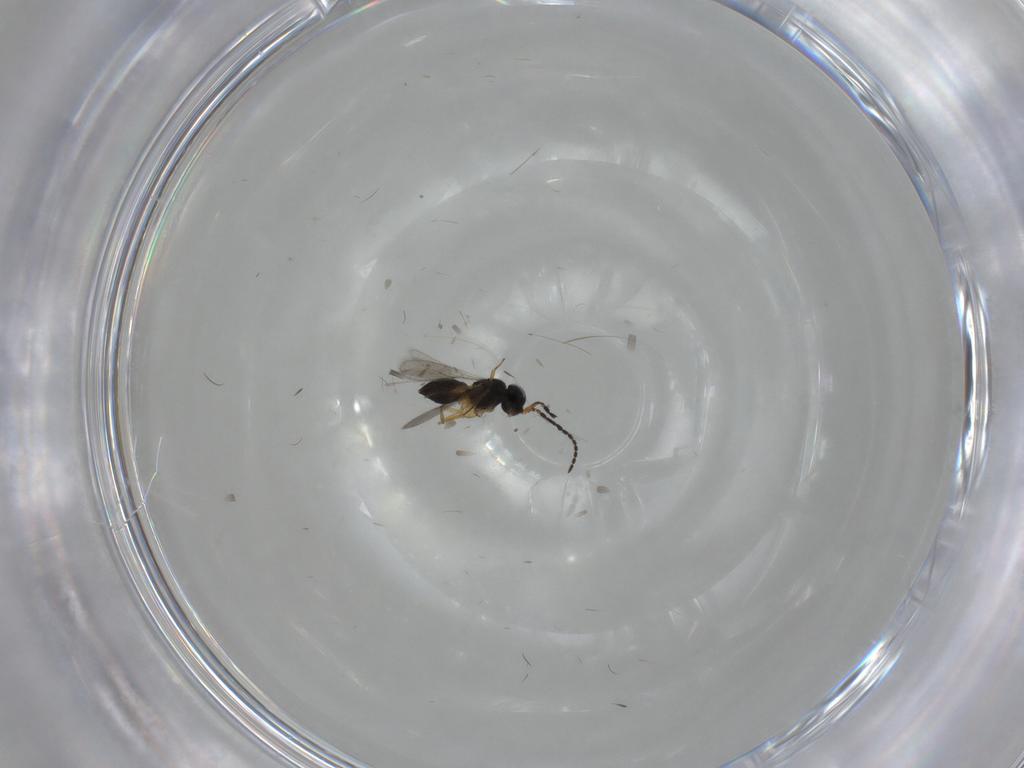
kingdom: Animalia
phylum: Arthropoda
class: Insecta
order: Hymenoptera
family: Scelionidae
